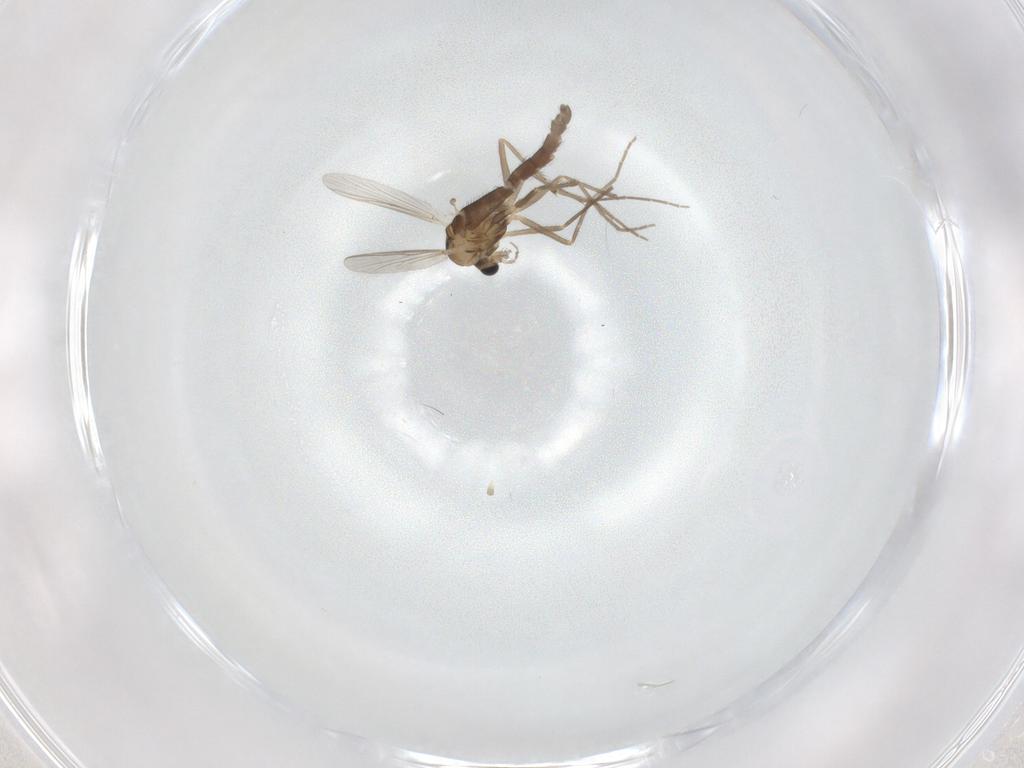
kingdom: Animalia
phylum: Arthropoda
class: Insecta
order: Diptera
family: Chironomidae
